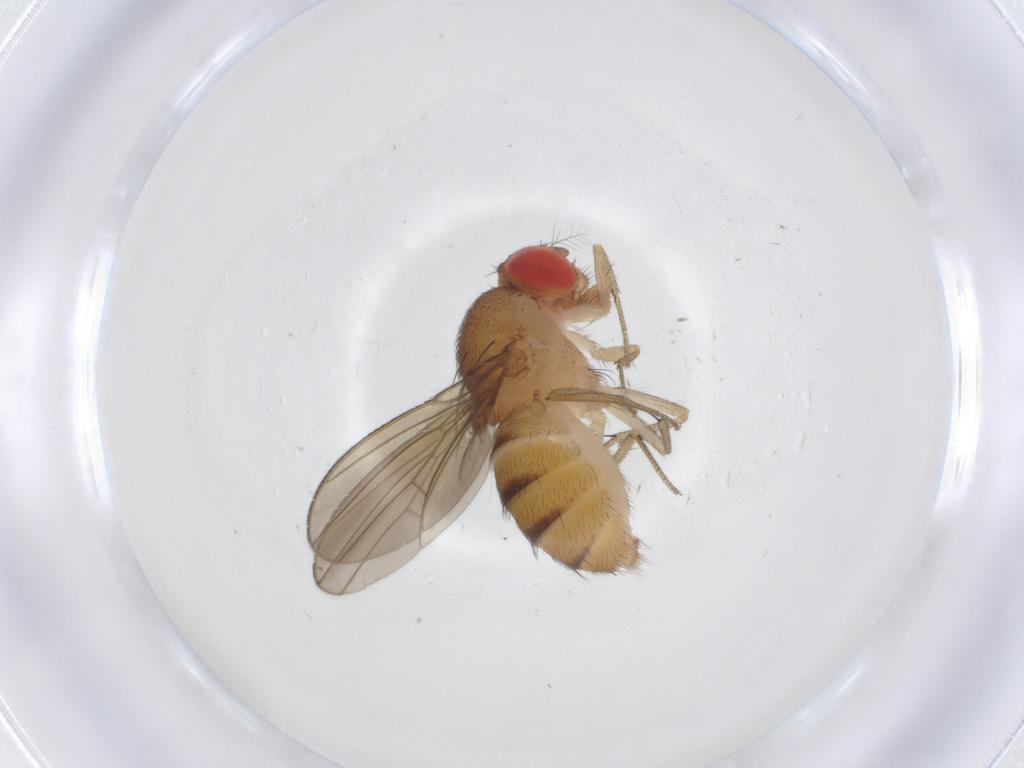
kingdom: Animalia
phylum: Arthropoda
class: Insecta
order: Diptera
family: Drosophilidae
